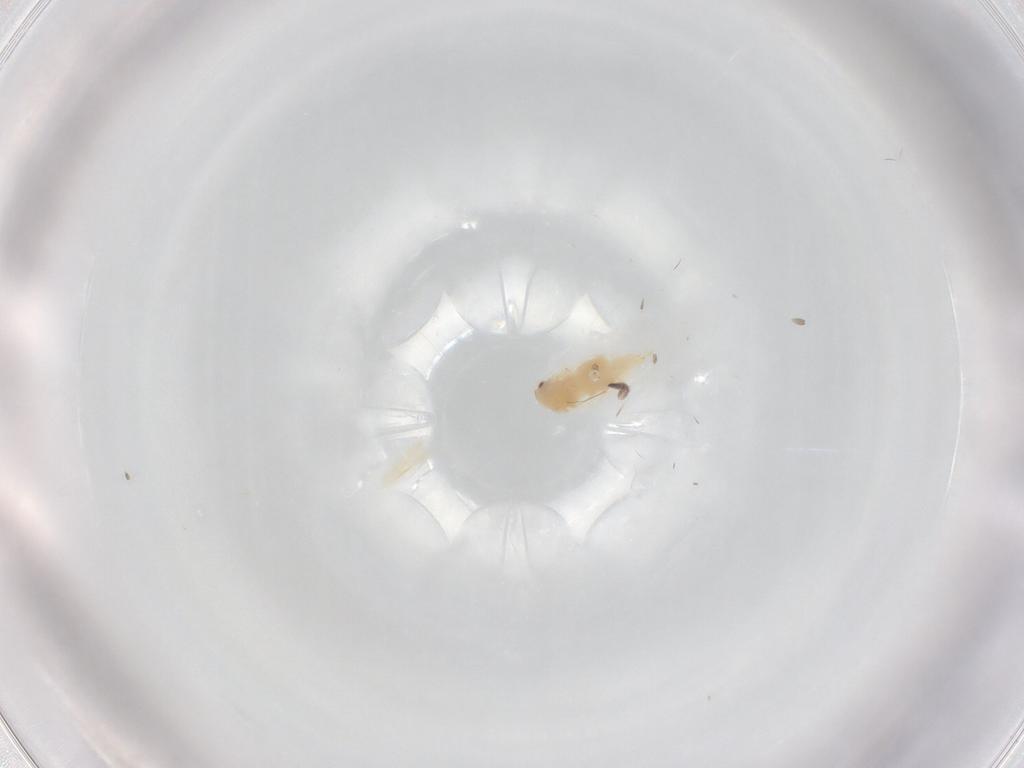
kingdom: Animalia
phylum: Arthropoda
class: Insecta
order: Hemiptera
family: Aleyrodidae
